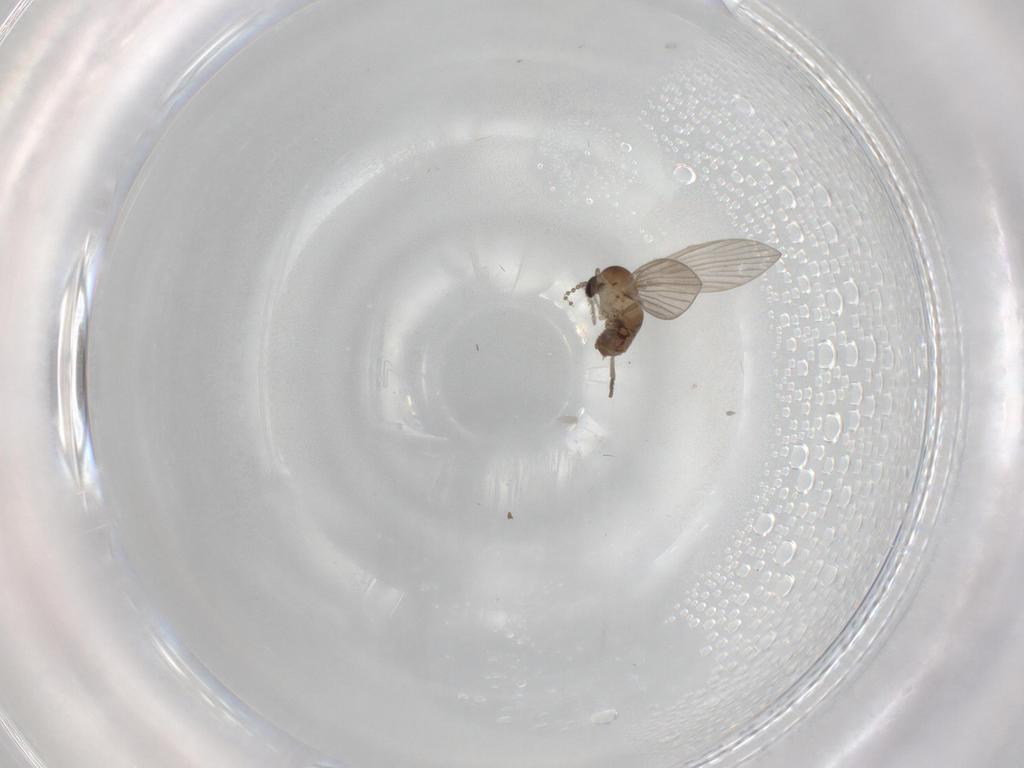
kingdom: Animalia
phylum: Arthropoda
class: Insecta
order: Diptera
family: Psychodidae
